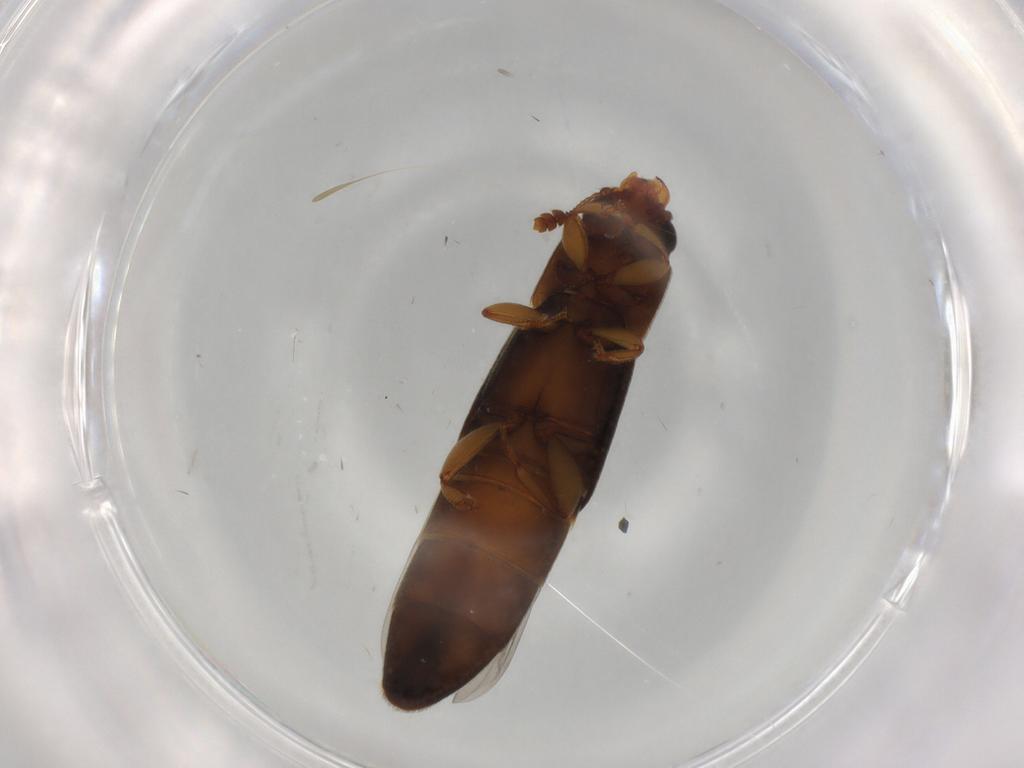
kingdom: Animalia
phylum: Arthropoda
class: Insecta
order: Coleoptera
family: Nitidulidae
